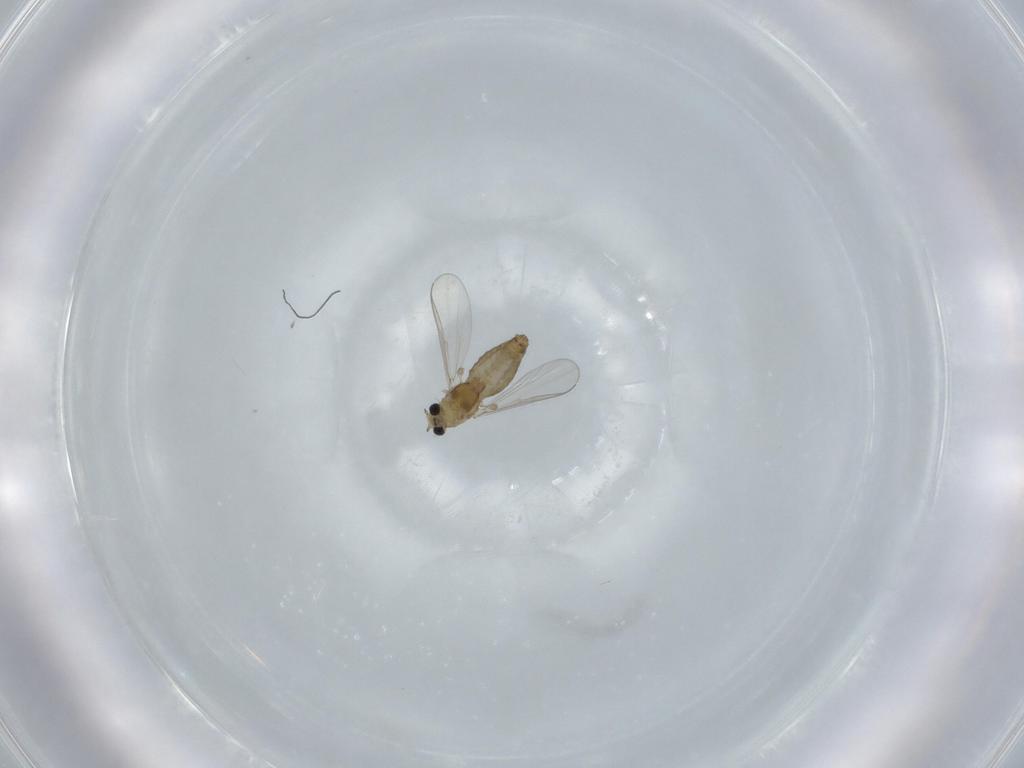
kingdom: Animalia
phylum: Arthropoda
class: Insecta
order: Diptera
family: Chironomidae
